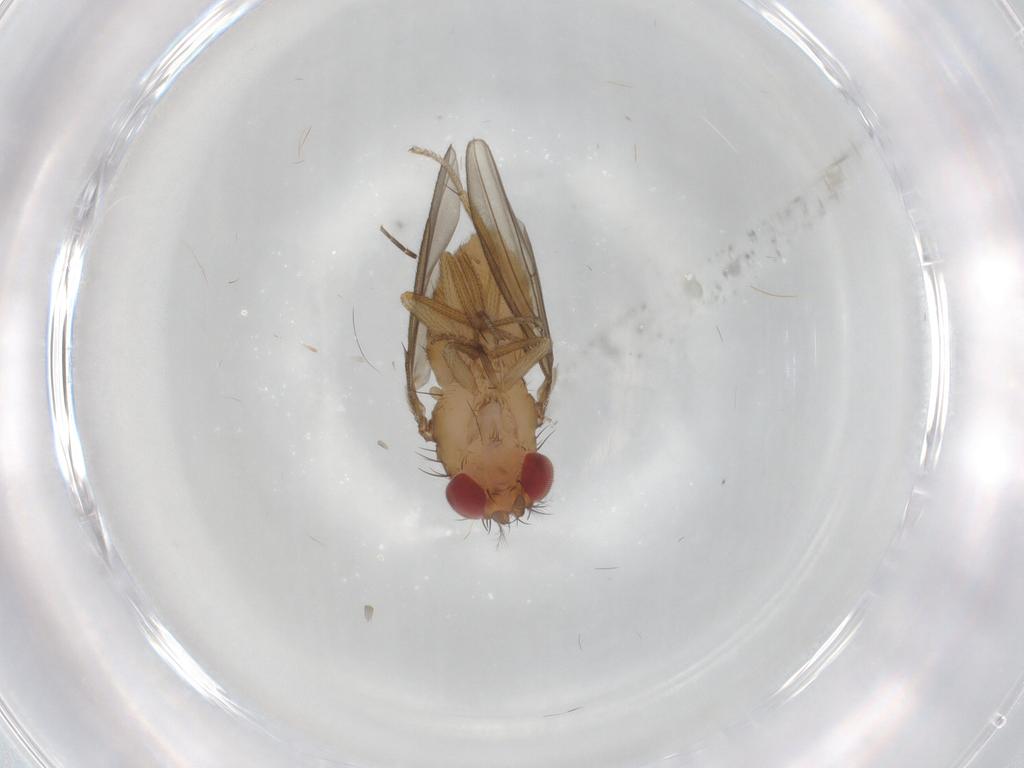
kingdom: Animalia
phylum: Arthropoda
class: Insecta
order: Diptera
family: Drosophilidae
